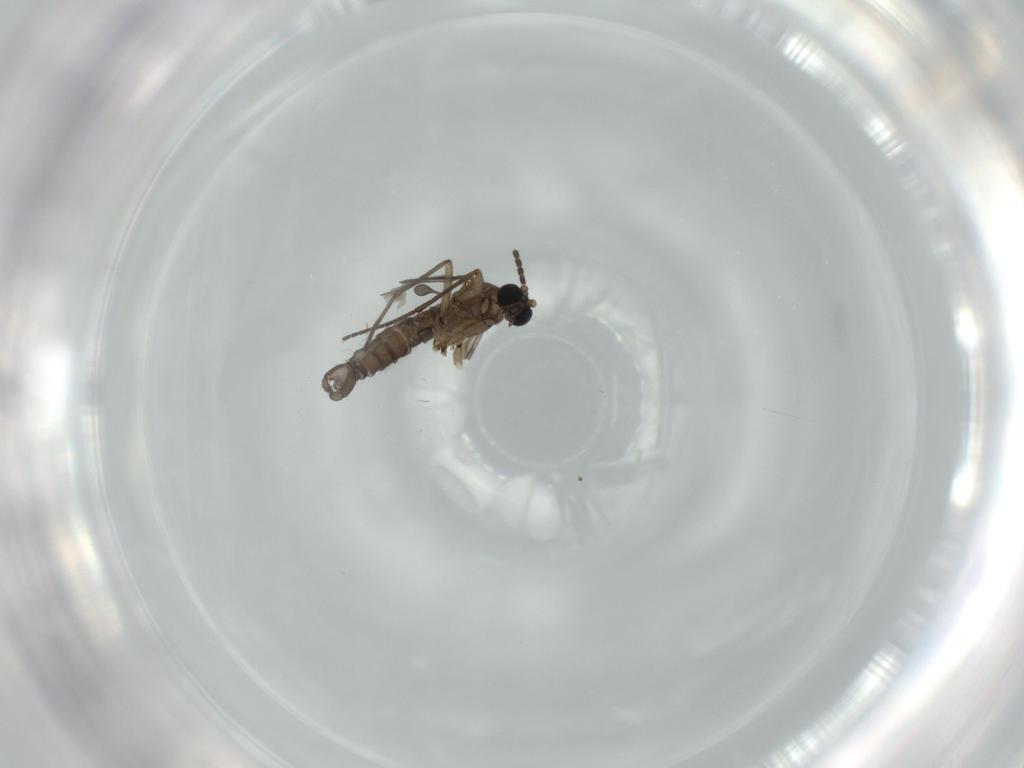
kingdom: Animalia
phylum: Arthropoda
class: Insecta
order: Diptera
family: Sciaridae
